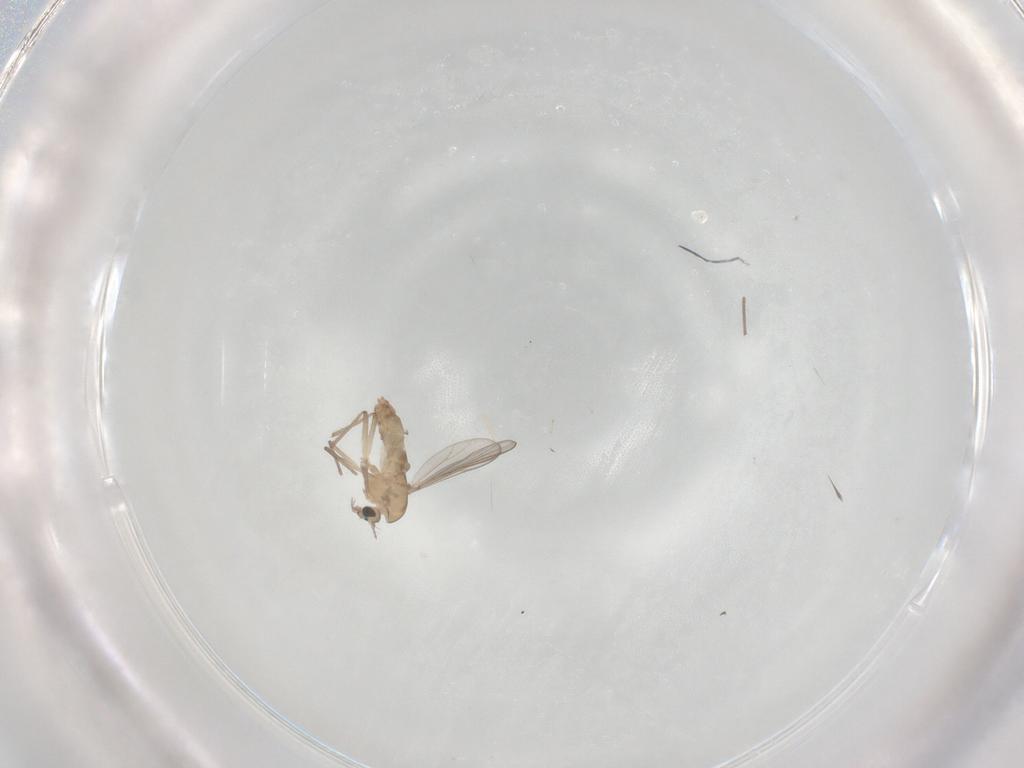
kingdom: Animalia
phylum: Arthropoda
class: Insecta
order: Diptera
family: Chironomidae
